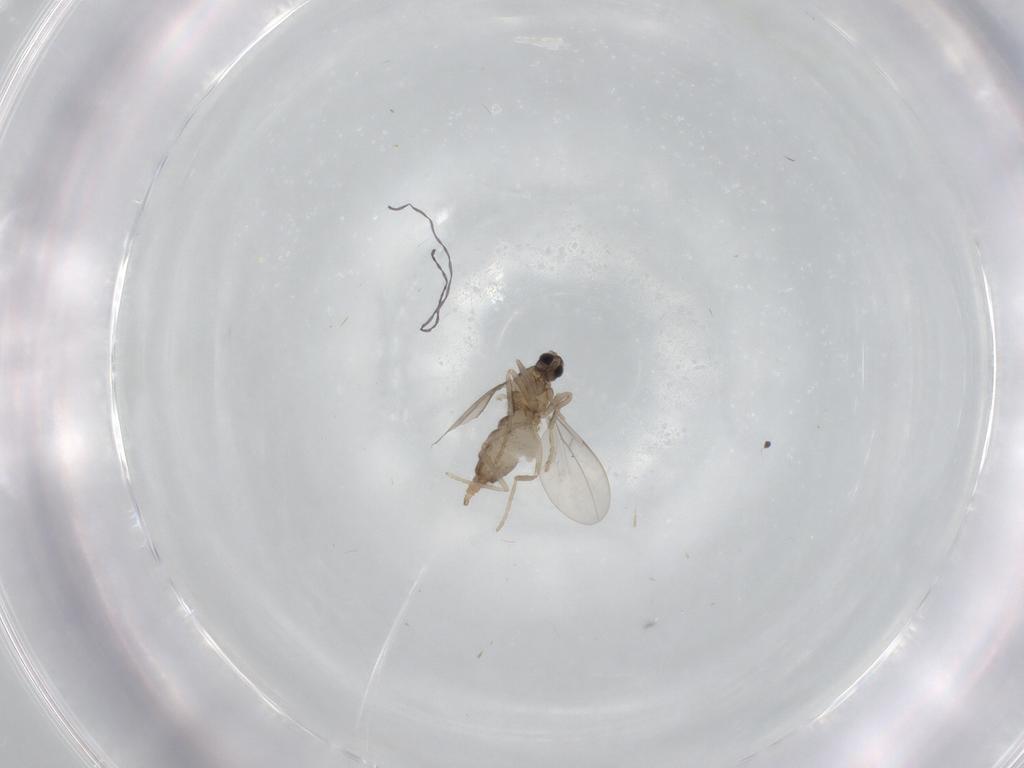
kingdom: Animalia
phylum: Arthropoda
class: Insecta
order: Diptera
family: Cecidomyiidae
